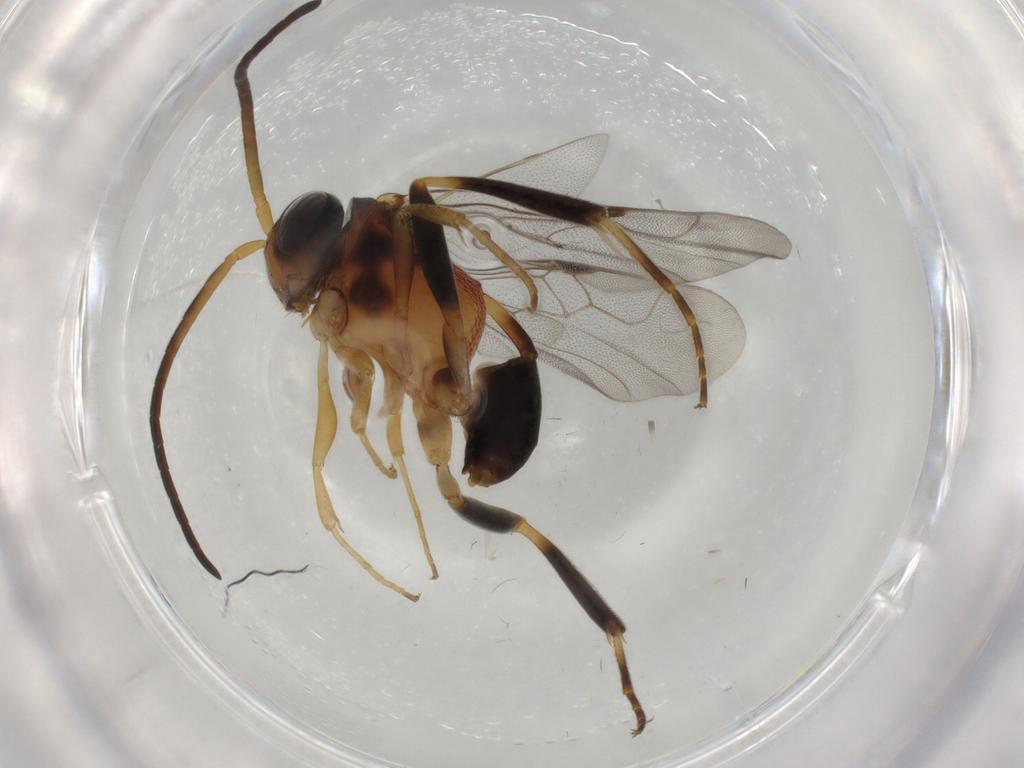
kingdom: Animalia
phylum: Arthropoda
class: Insecta
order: Hymenoptera
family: Evaniidae
